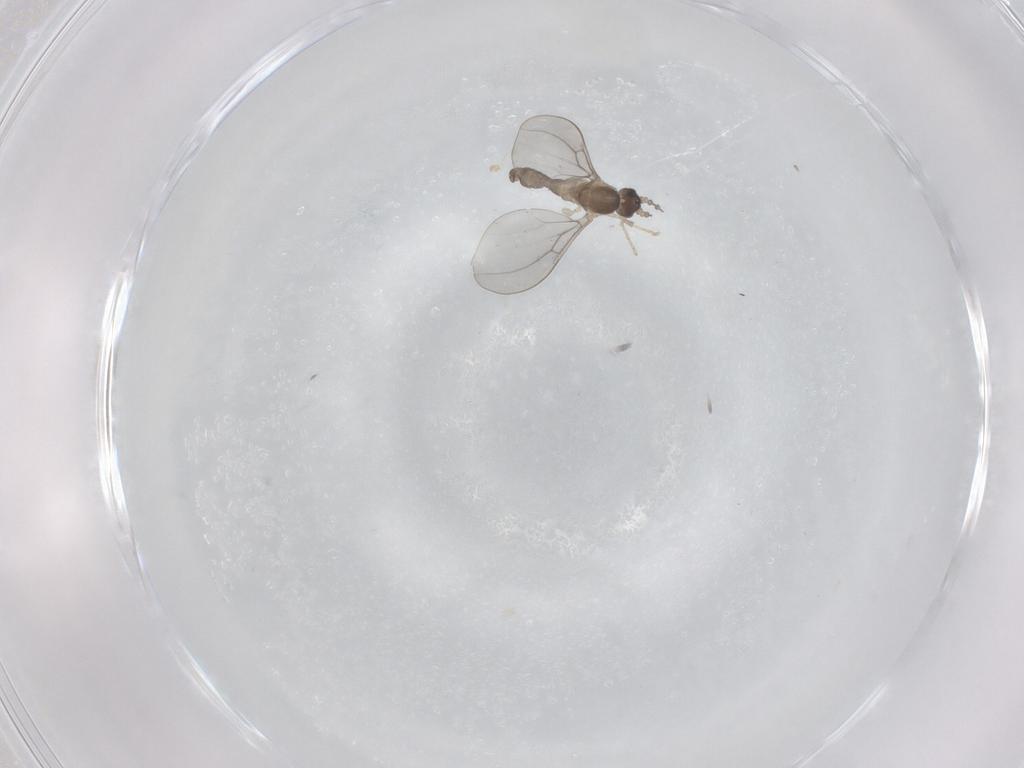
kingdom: Animalia
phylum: Arthropoda
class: Insecta
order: Diptera
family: Cecidomyiidae
